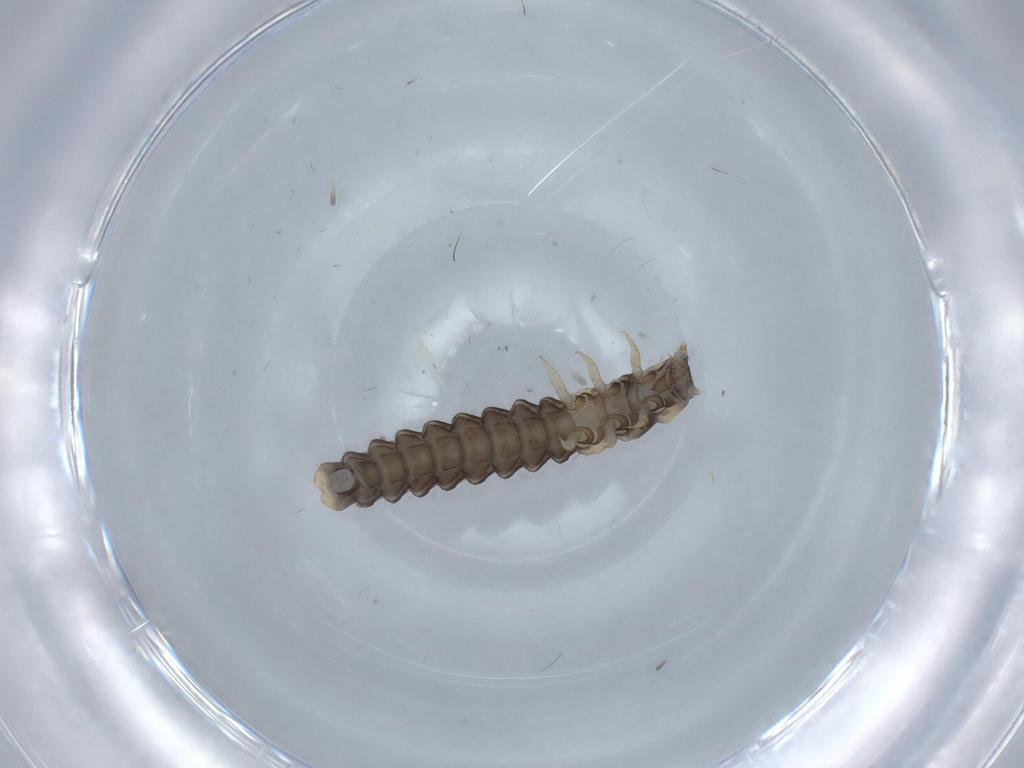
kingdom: Animalia
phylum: Arthropoda
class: Insecta
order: Coleoptera
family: Lycidae
